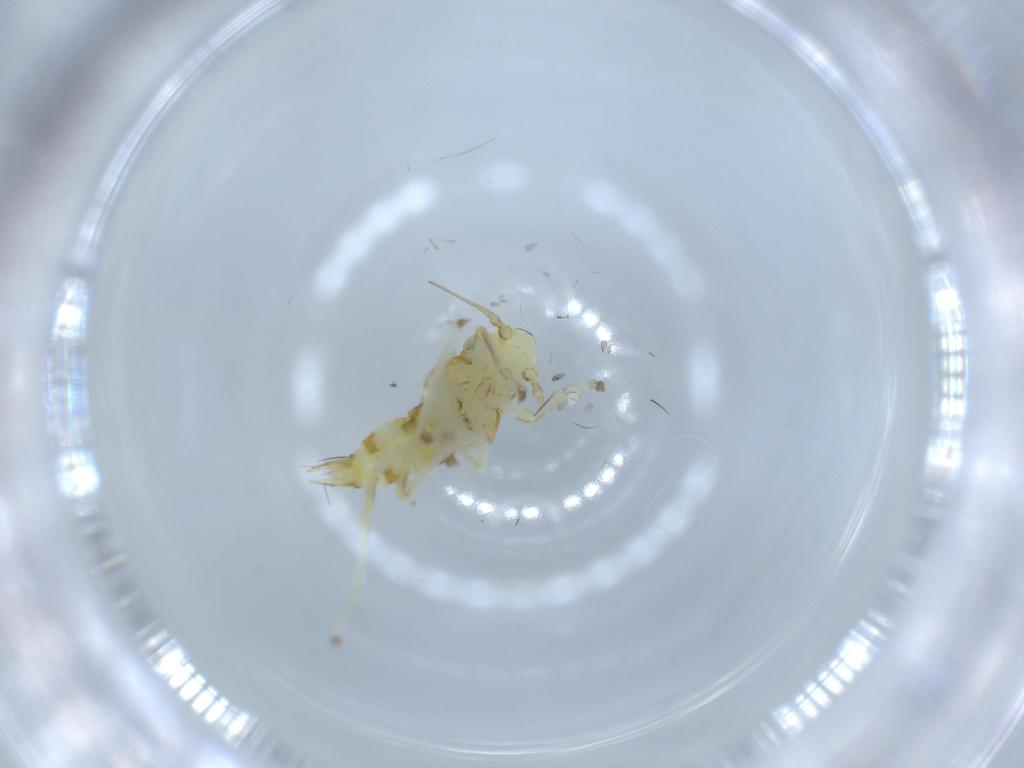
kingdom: Animalia
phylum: Arthropoda
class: Insecta
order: Hemiptera
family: Cicadellidae
